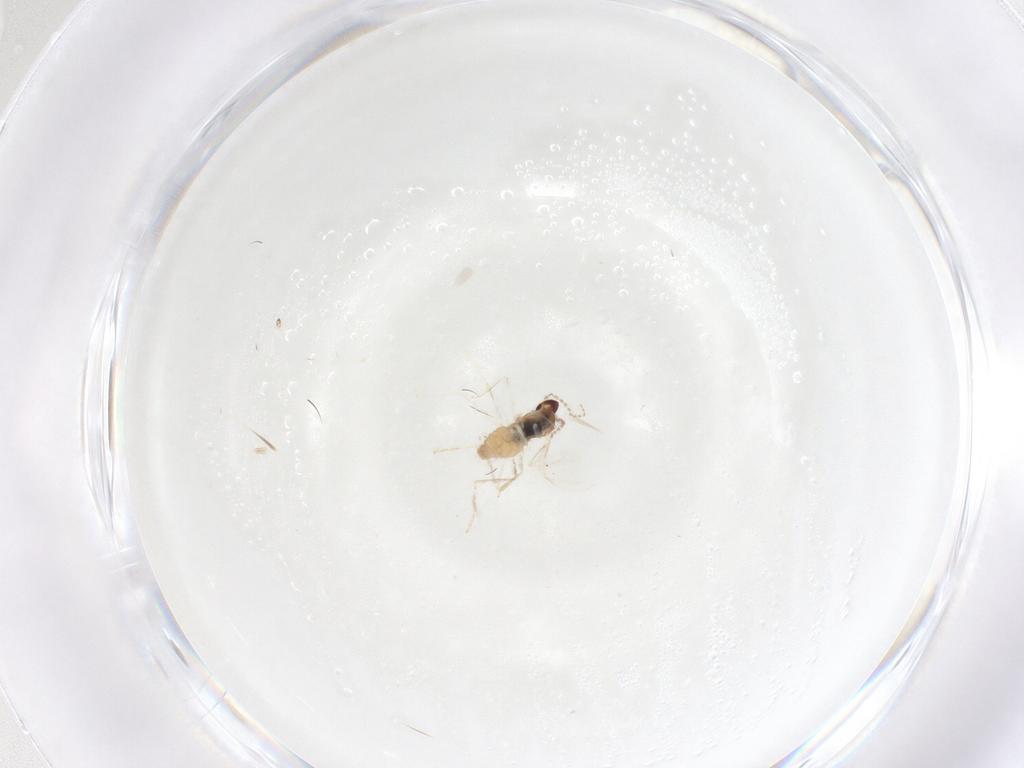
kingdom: Animalia
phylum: Arthropoda
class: Insecta
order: Diptera
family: Cecidomyiidae
